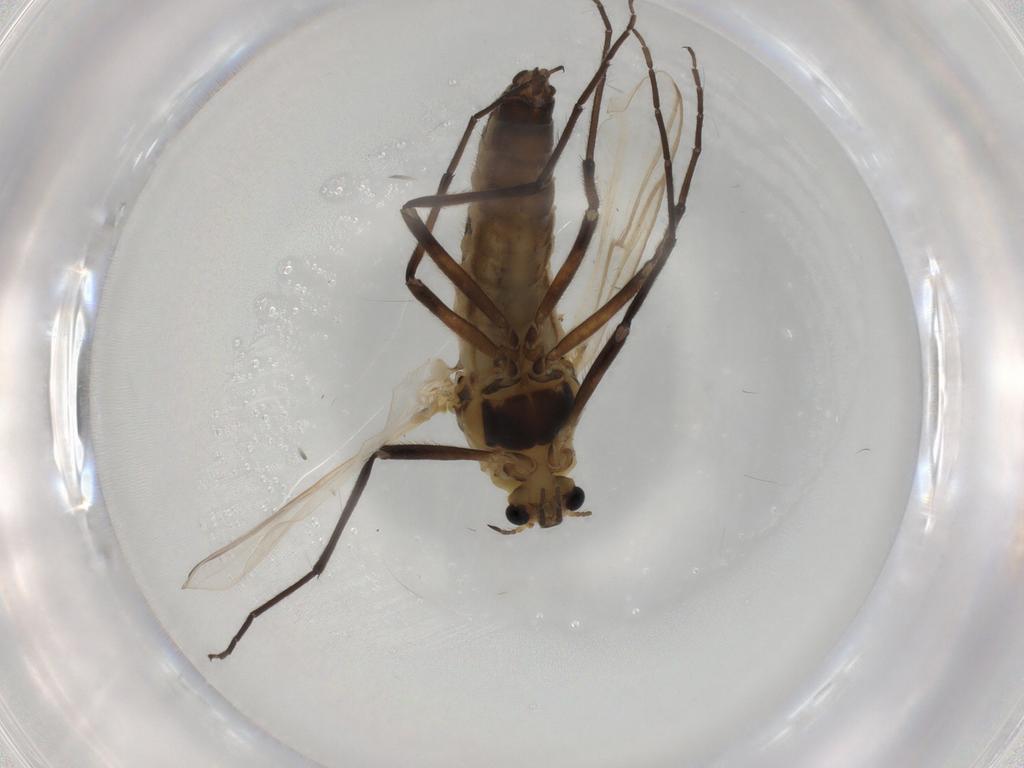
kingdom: Animalia
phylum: Arthropoda
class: Insecta
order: Diptera
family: Ceratopogonidae
